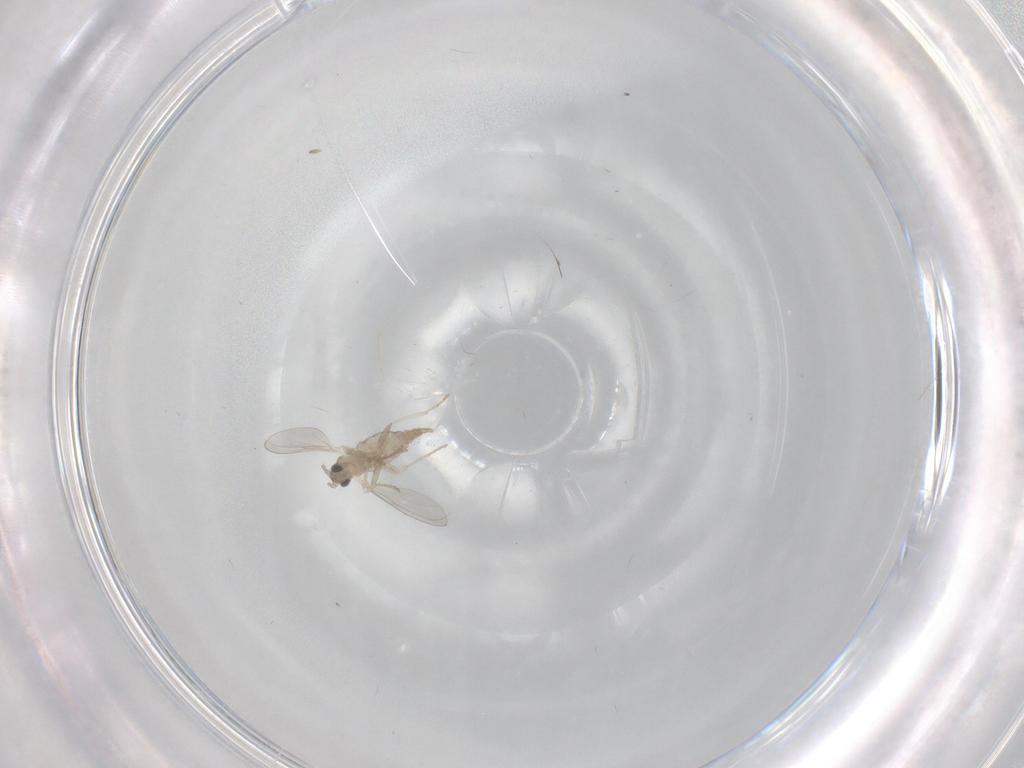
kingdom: Animalia
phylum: Arthropoda
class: Insecta
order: Diptera
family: Cecidomyiidae
